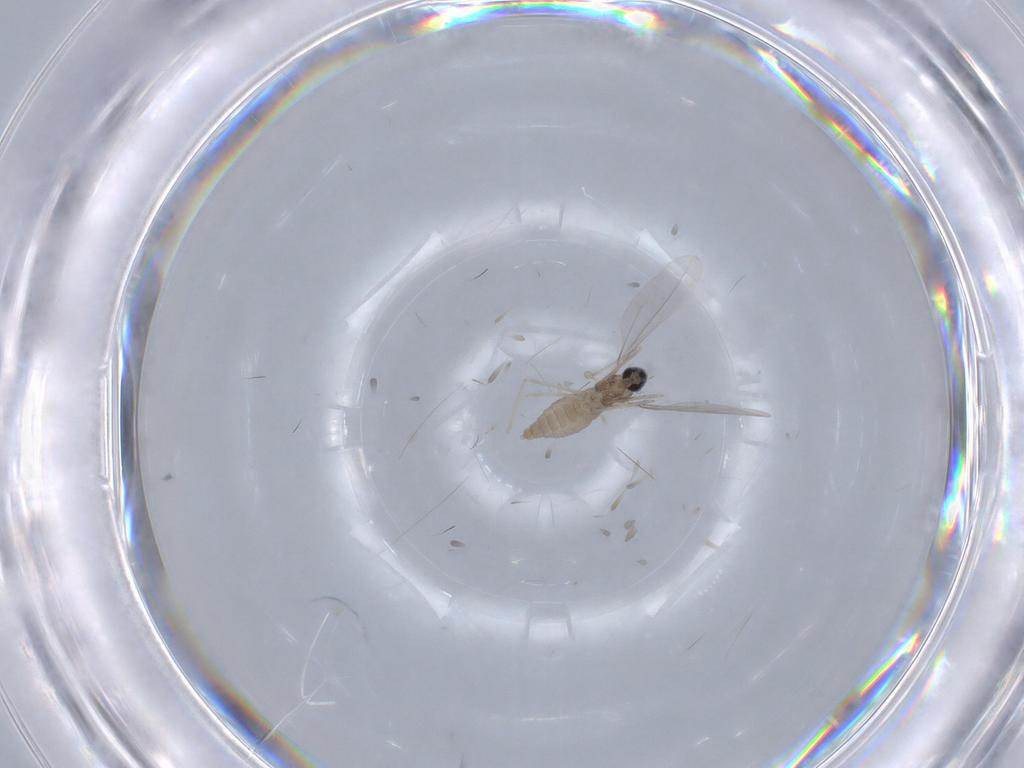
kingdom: Animalia
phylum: Arthropoda
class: Insecta
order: Diptera
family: Cecidomyiidae
